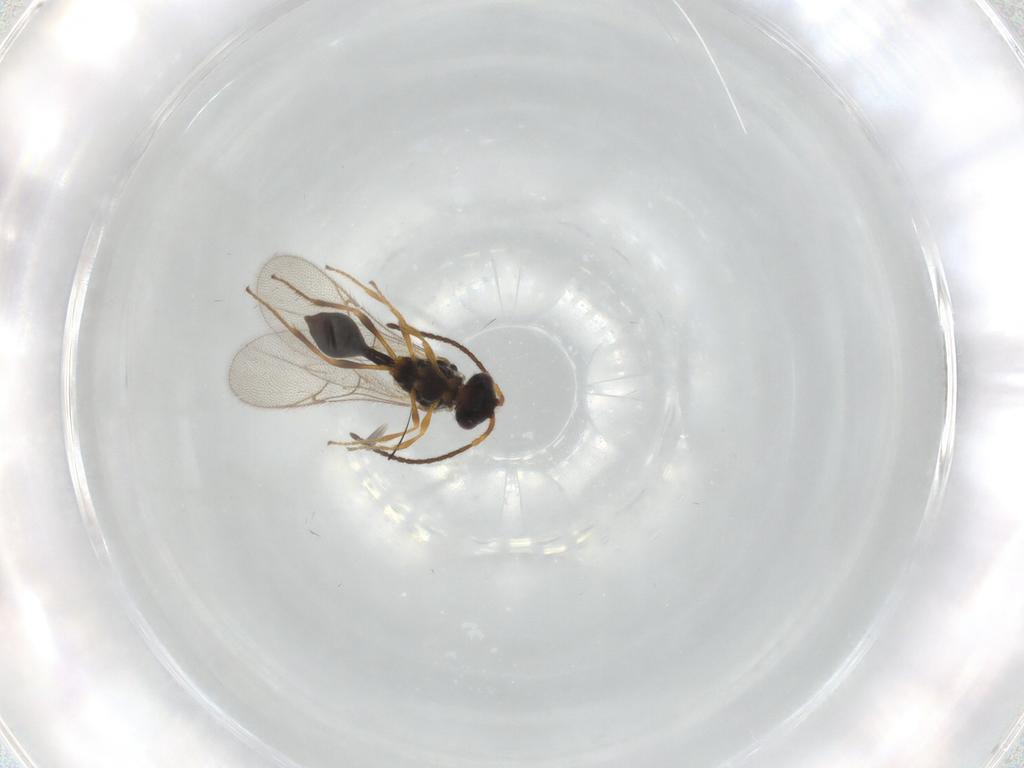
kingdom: Animalia
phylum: Arthropoda
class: Insecta
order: Hymenoptera
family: Diapriidae
